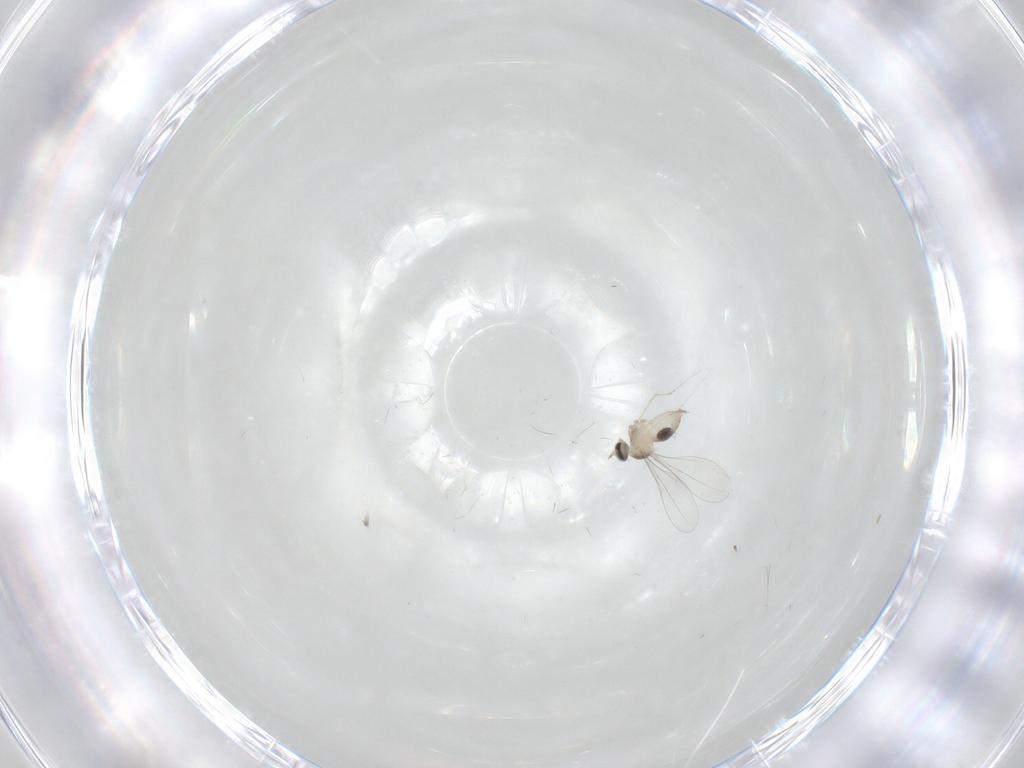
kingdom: Animalia
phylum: Arthropoda
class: Insecta
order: Diptera
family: Cecidomyiidae
